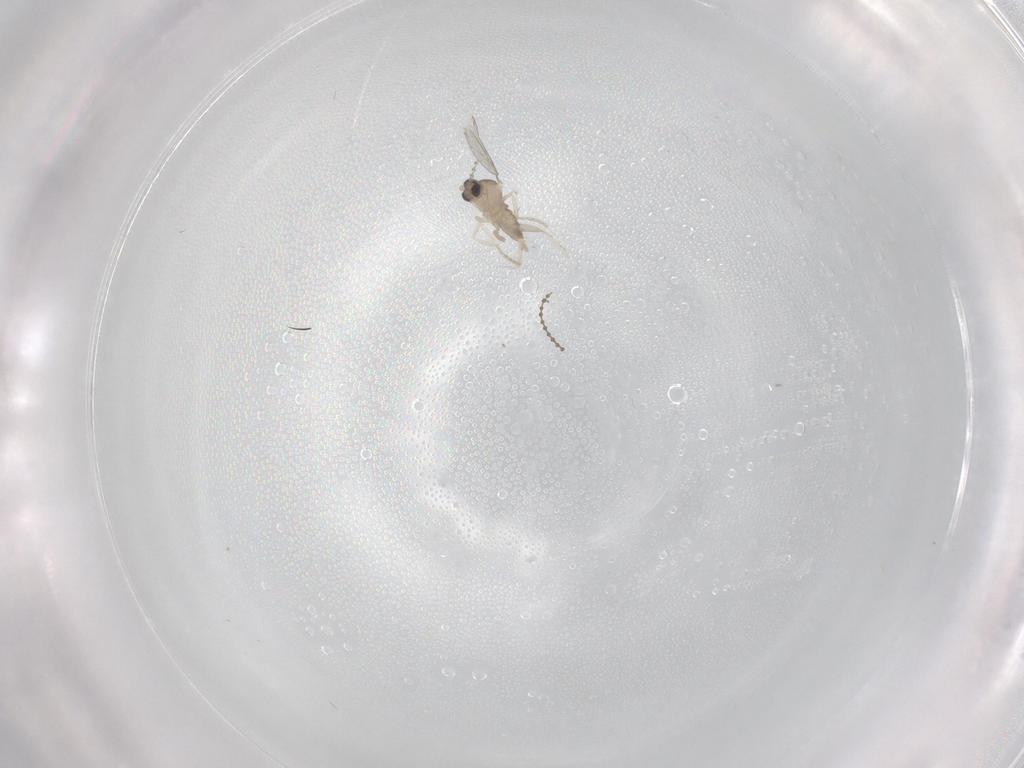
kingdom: Animalia
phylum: Arthropoda
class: Insecta
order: Diptera
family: Cecidomyiidae
